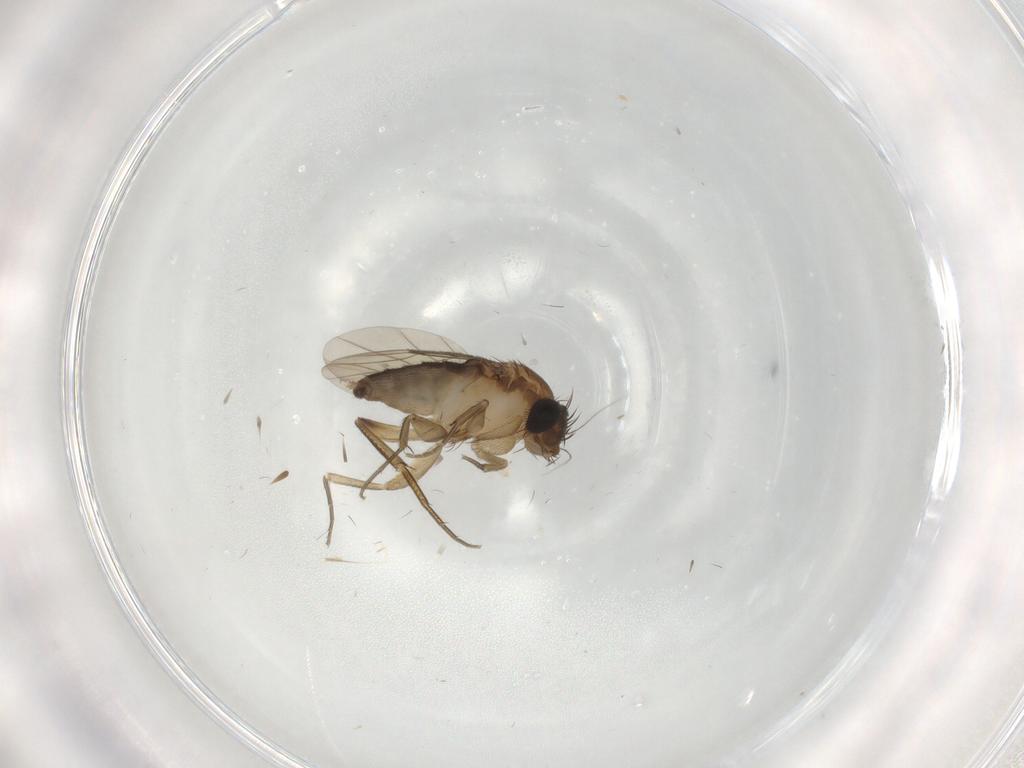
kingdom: Animalia
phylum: Arthropoda
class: Insecta
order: Diptera
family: Phoridae
